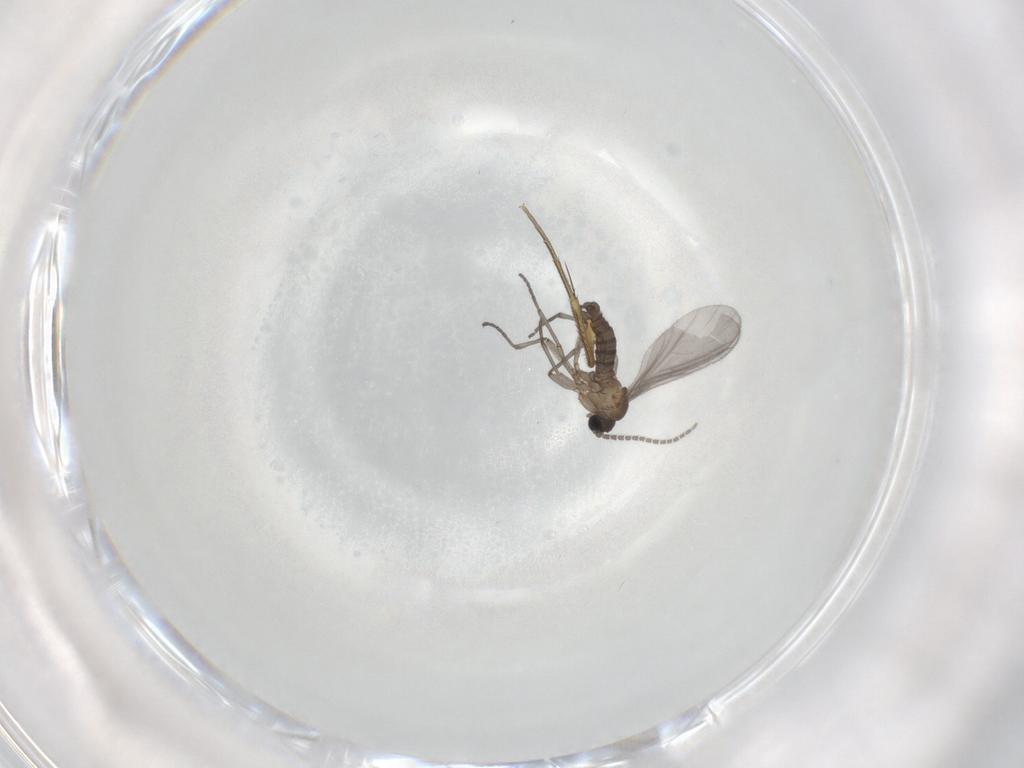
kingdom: Animalia
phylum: Arthropoda
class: Insecta
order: Diptera
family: Sciaridae
